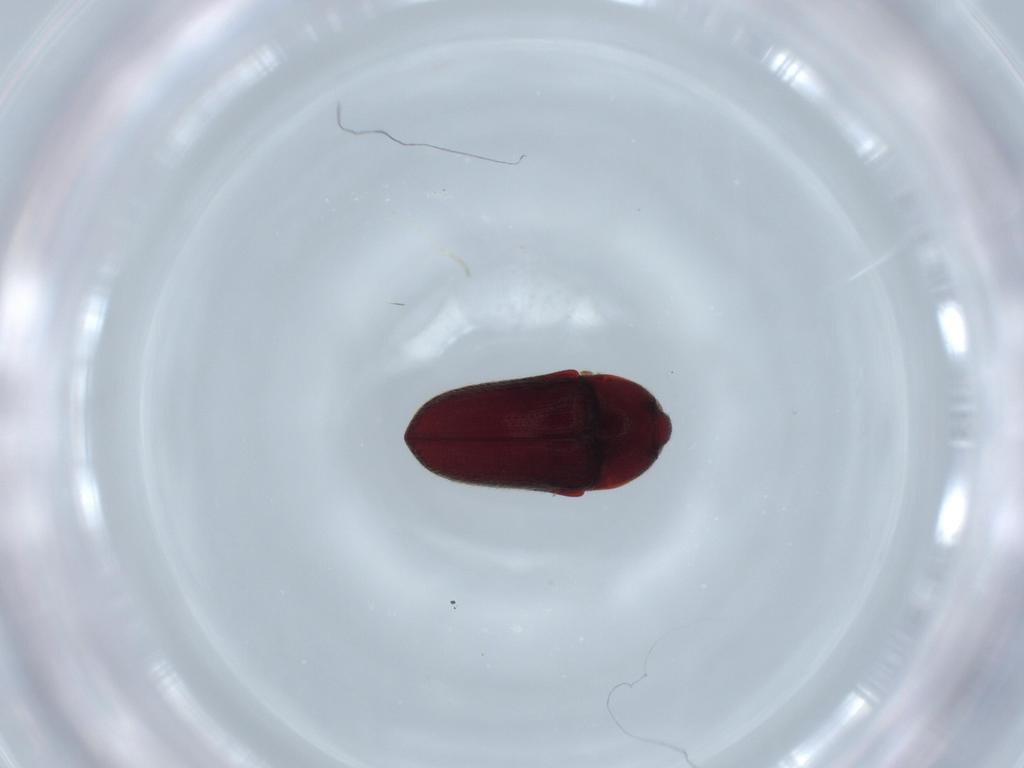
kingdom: Animalia
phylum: Arthropoda
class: Insecta
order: Coleoptera
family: Throscidae
